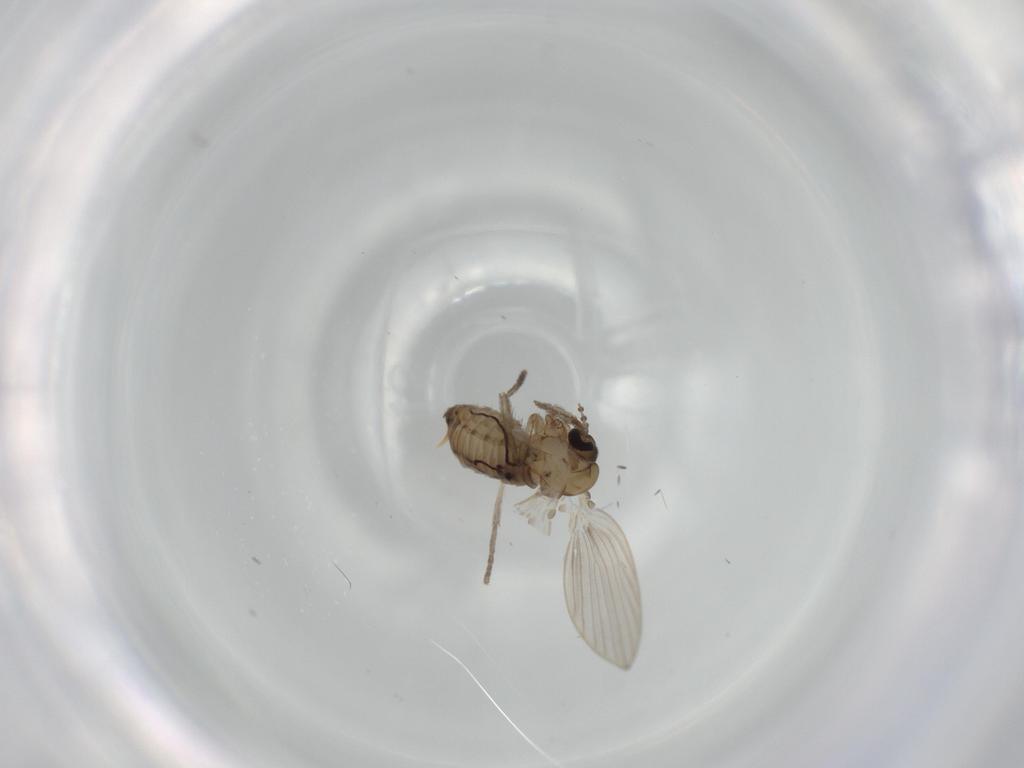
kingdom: Animalia
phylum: Arthropoda
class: Insecta
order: Diptera
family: Psychodidae
